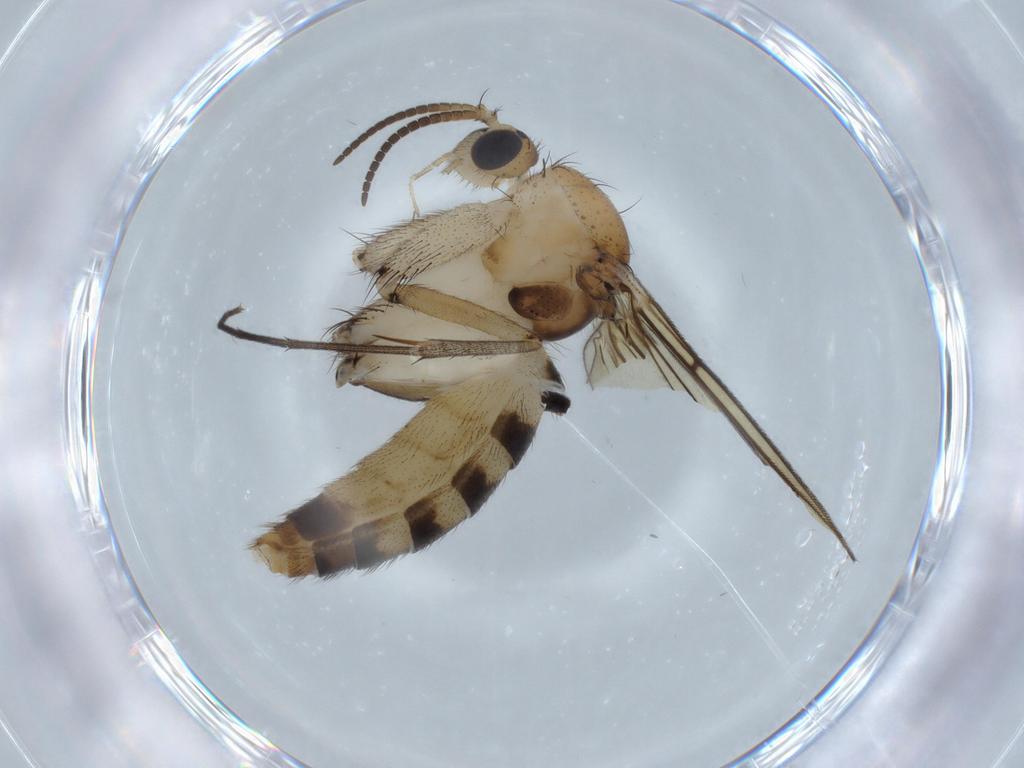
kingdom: Animalia
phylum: Arthropoda
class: Insecta
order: Diptera
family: Mycetophilidae
